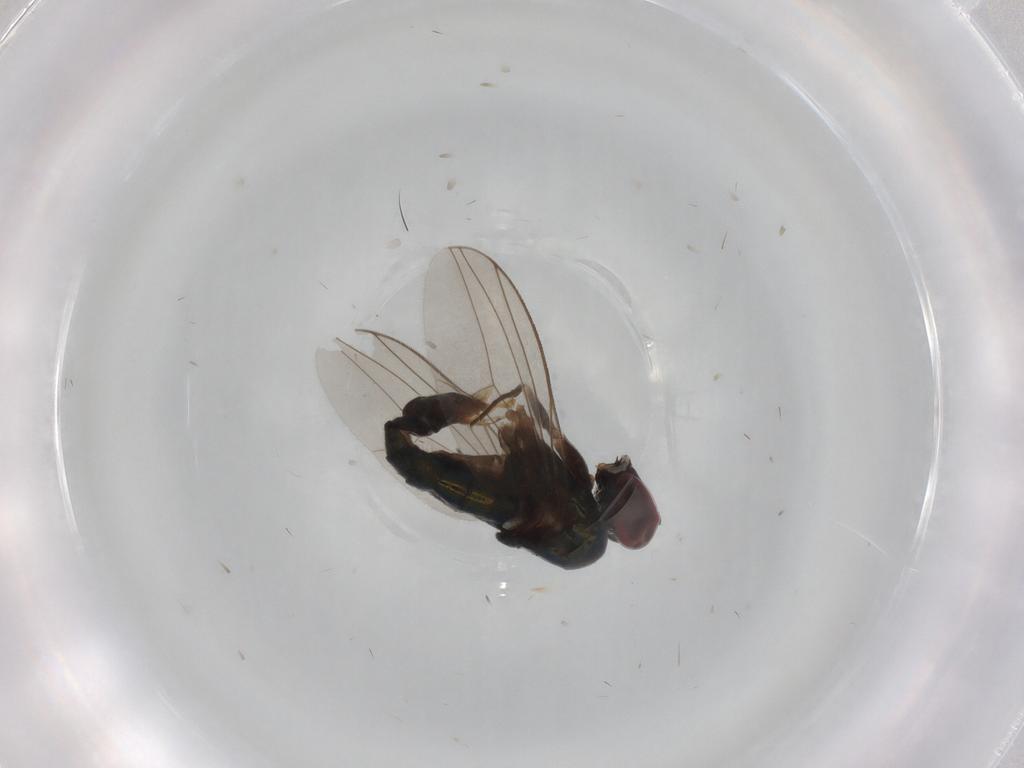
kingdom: Animalia
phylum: Arthropoda
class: Insecta
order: Diptera
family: Dolichopodidae
